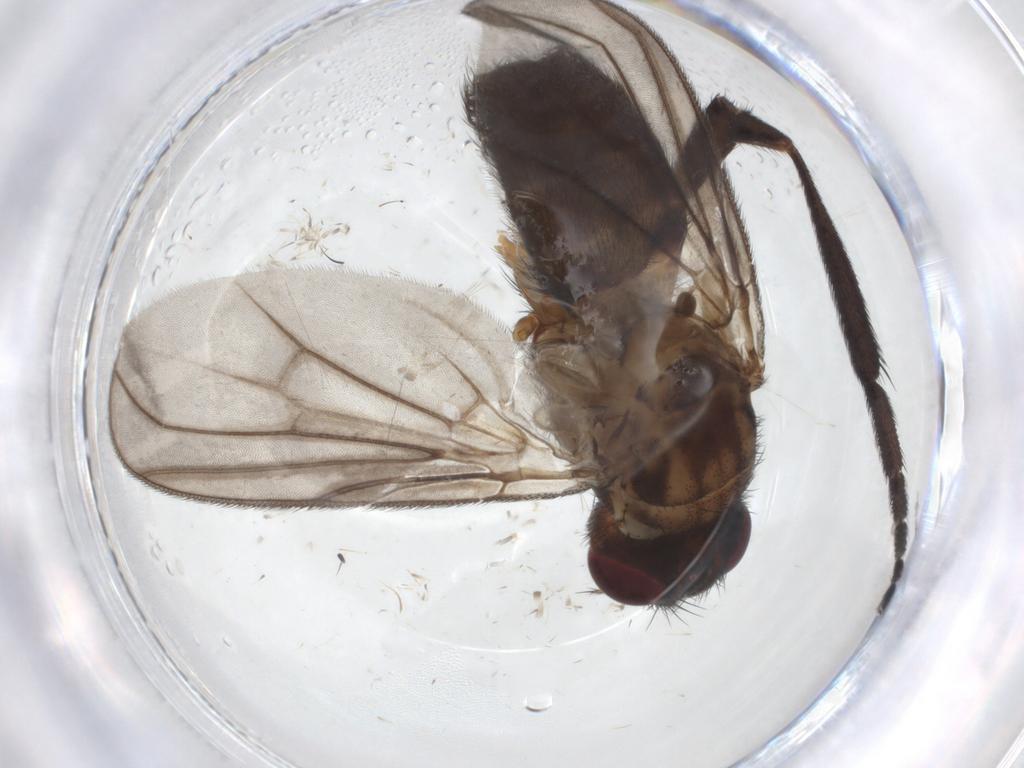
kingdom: Animalia
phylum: Arthropoda
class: Insecta
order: Diptera
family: Calliphoridae
